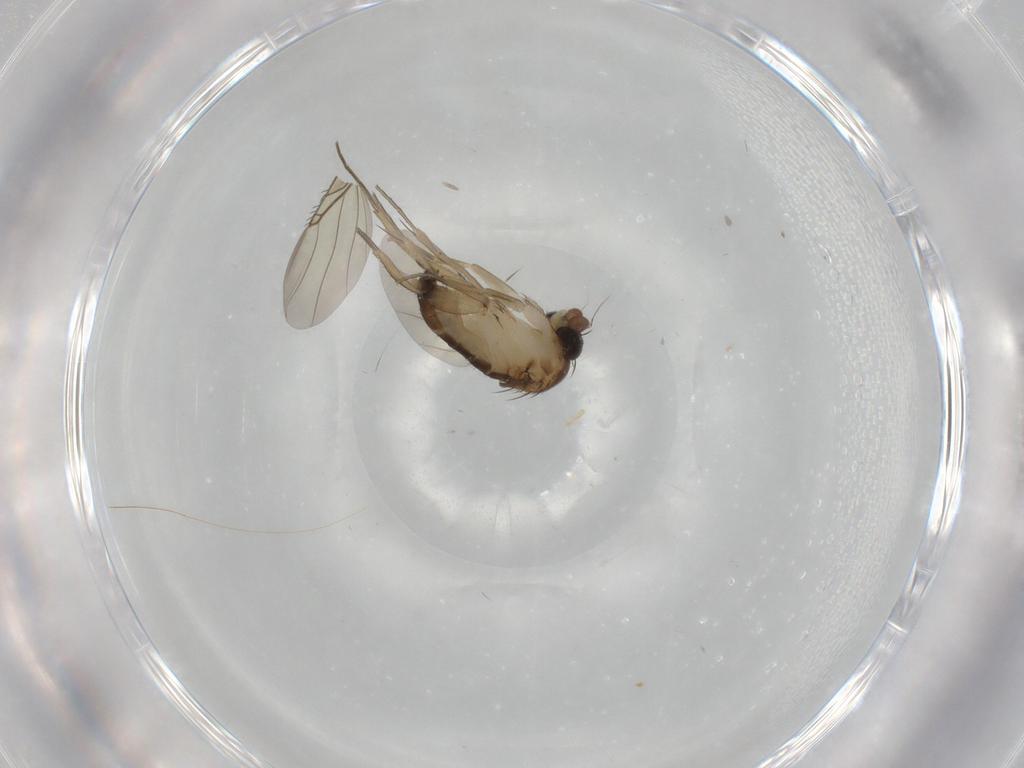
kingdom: Animalia
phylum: Arthropoda
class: Insecta
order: Diptera
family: Phoridae
